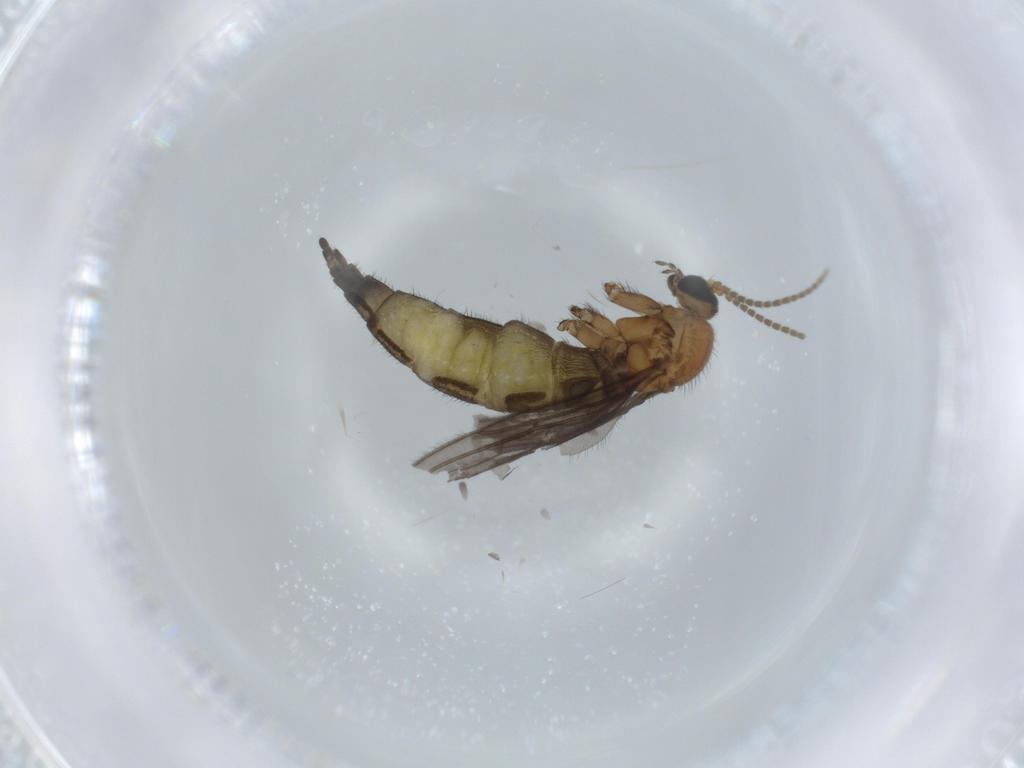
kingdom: Animalia
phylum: Arthropoda
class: Insecta
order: Diptera
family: Sciaridae
